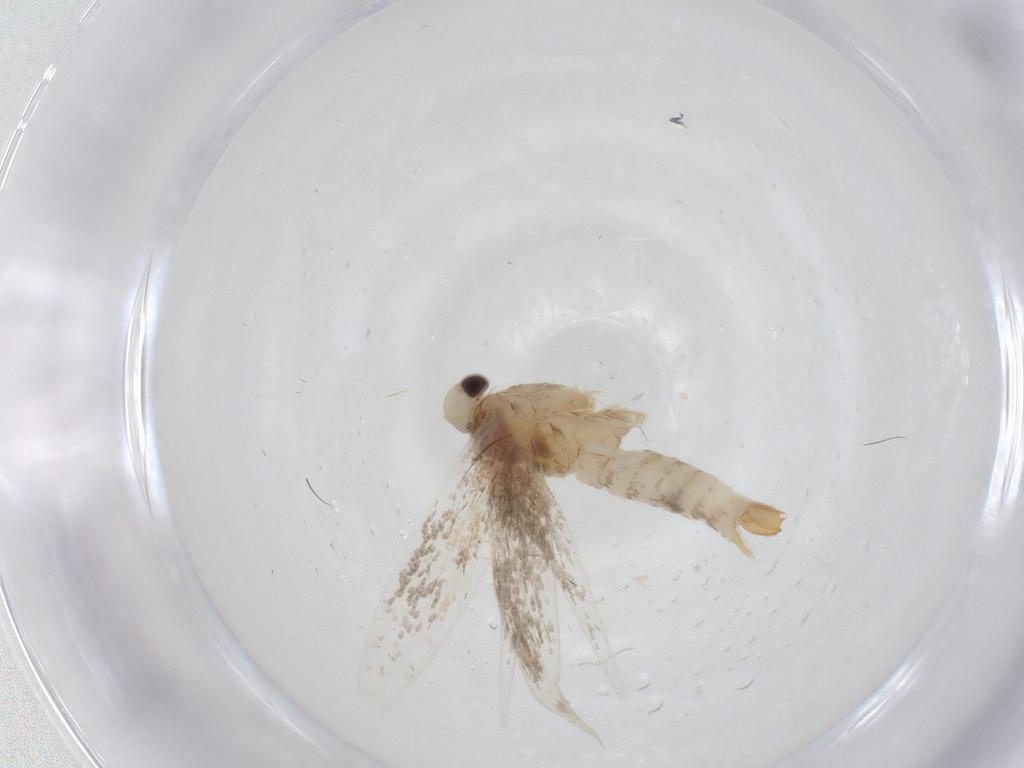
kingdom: Animalia
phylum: Arthropoda
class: Insecta
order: Lepidoptera
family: Gracillariidae
